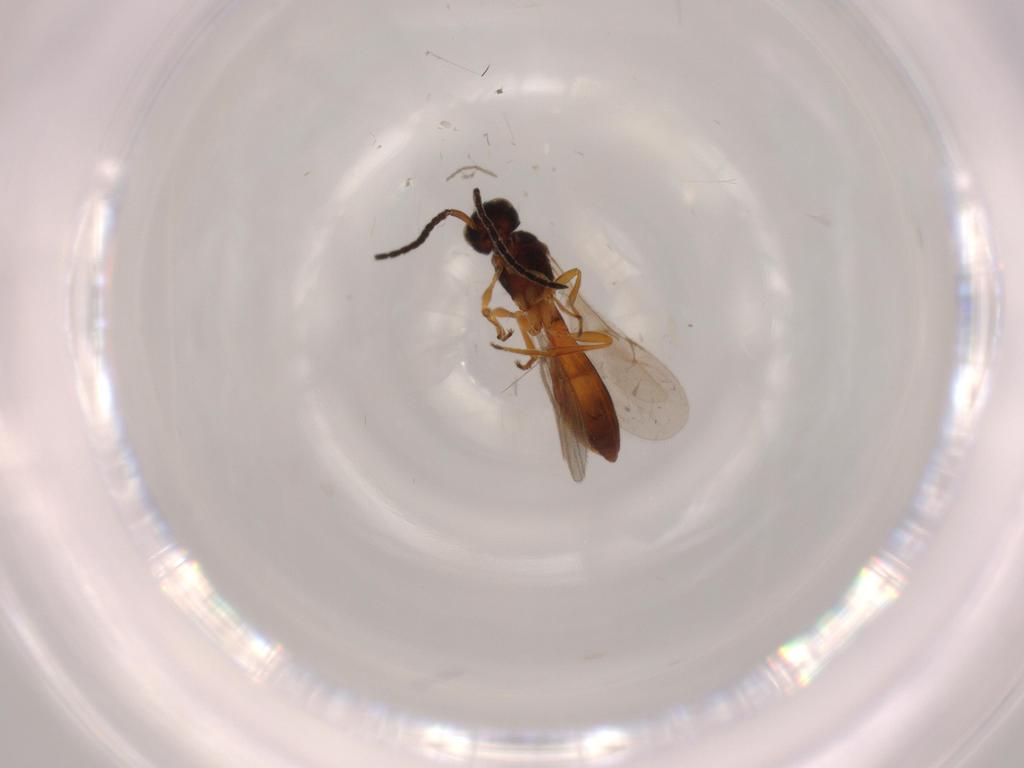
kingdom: Animalia
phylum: Arthropoda
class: Insecta
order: Hymenoptera
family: Scelionidae
